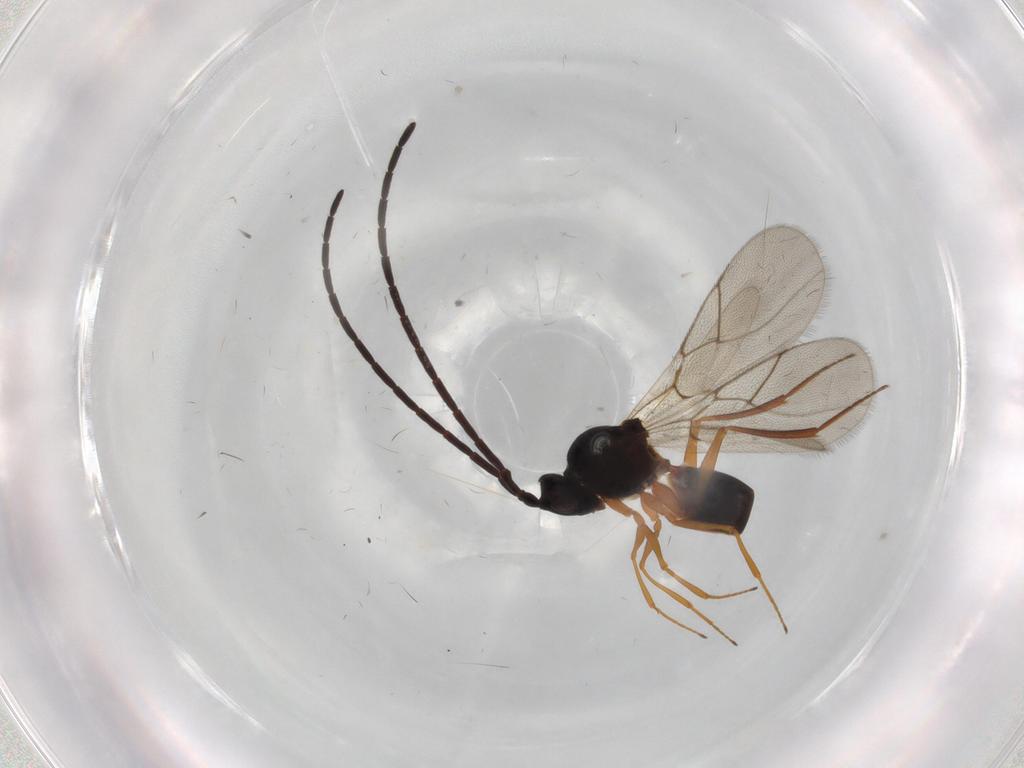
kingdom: Animalia
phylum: Arthropoda
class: Insecta
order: Hymenoptera
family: Figitidae
